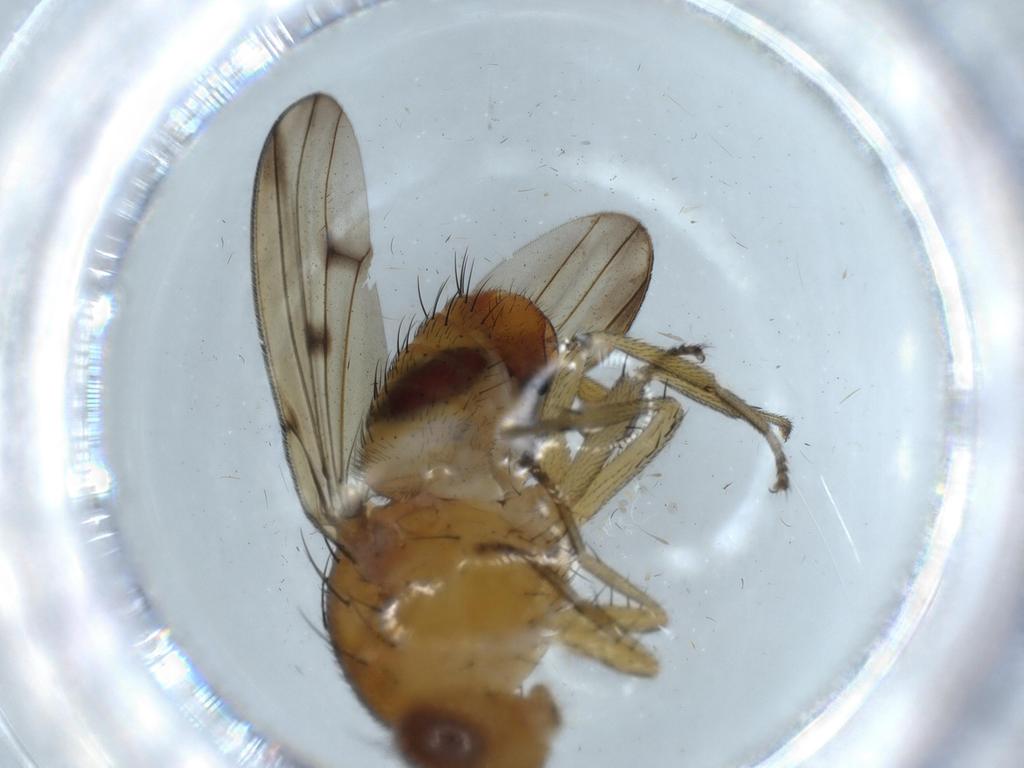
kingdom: Animalia
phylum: Arthropoda
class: Insecta
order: Diptera
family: Cecidomyiidae
